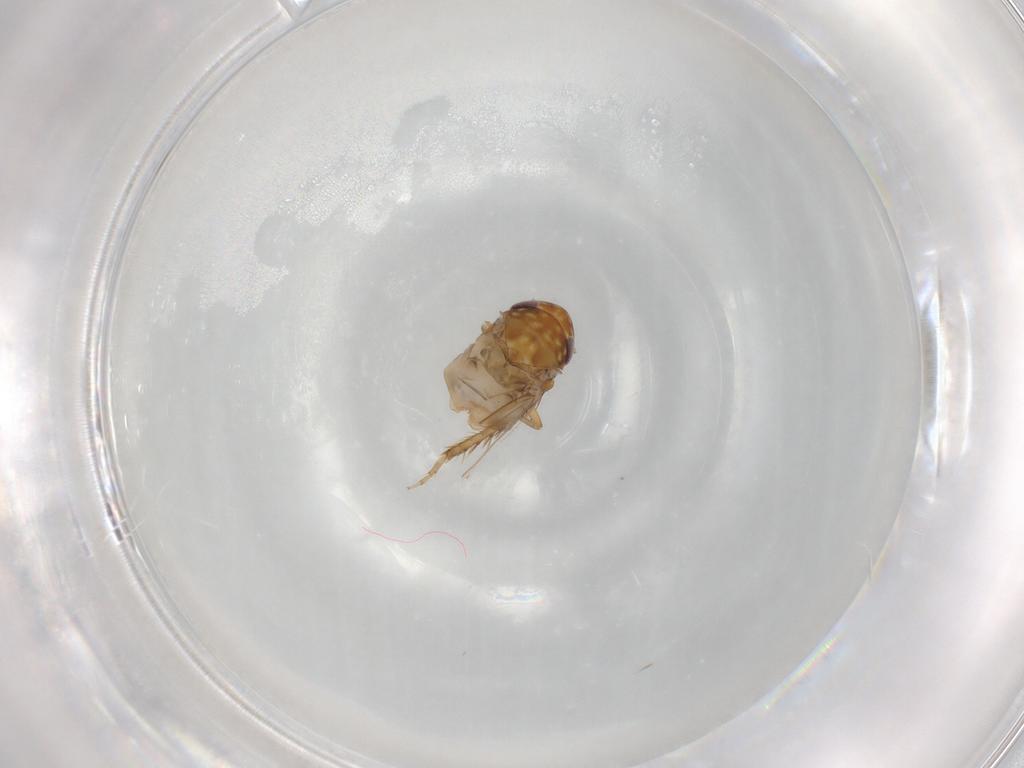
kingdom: Animalia
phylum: Arthropoda
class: Insecta
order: Hemiptera
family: Cicadellidae
